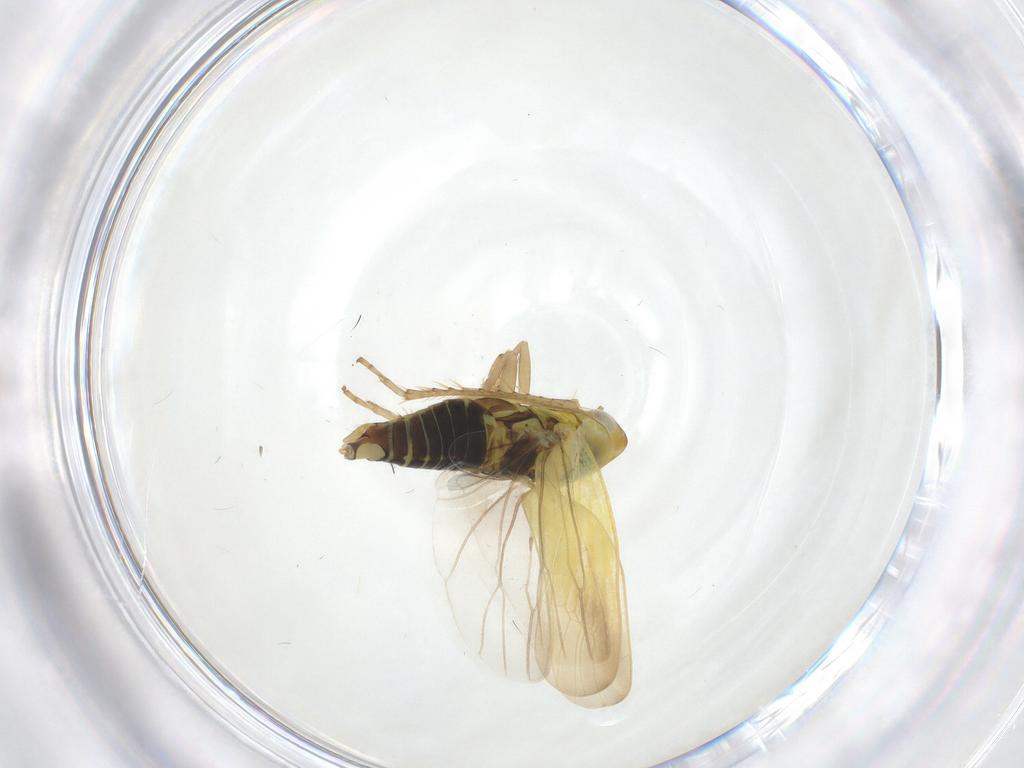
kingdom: Animalia
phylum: Arthropoda
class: Insecta
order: Hemiptera
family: Cicadellidae
